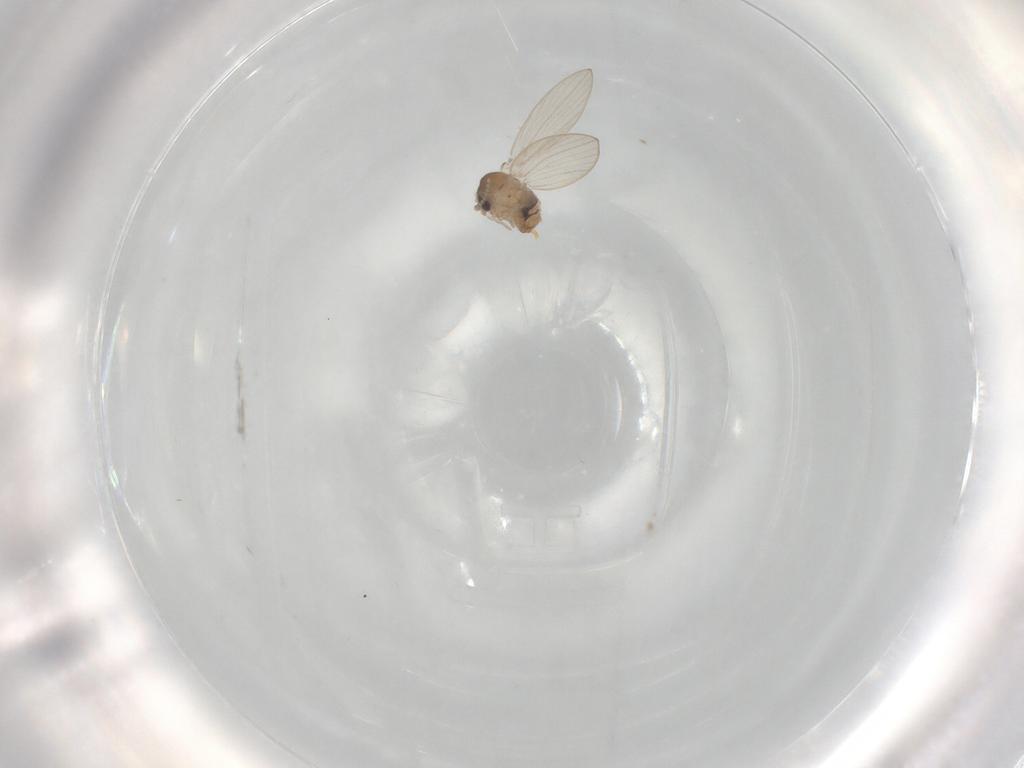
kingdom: Animalia
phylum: Arthropoda
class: Insecta
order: Diptera
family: Psychodidae
